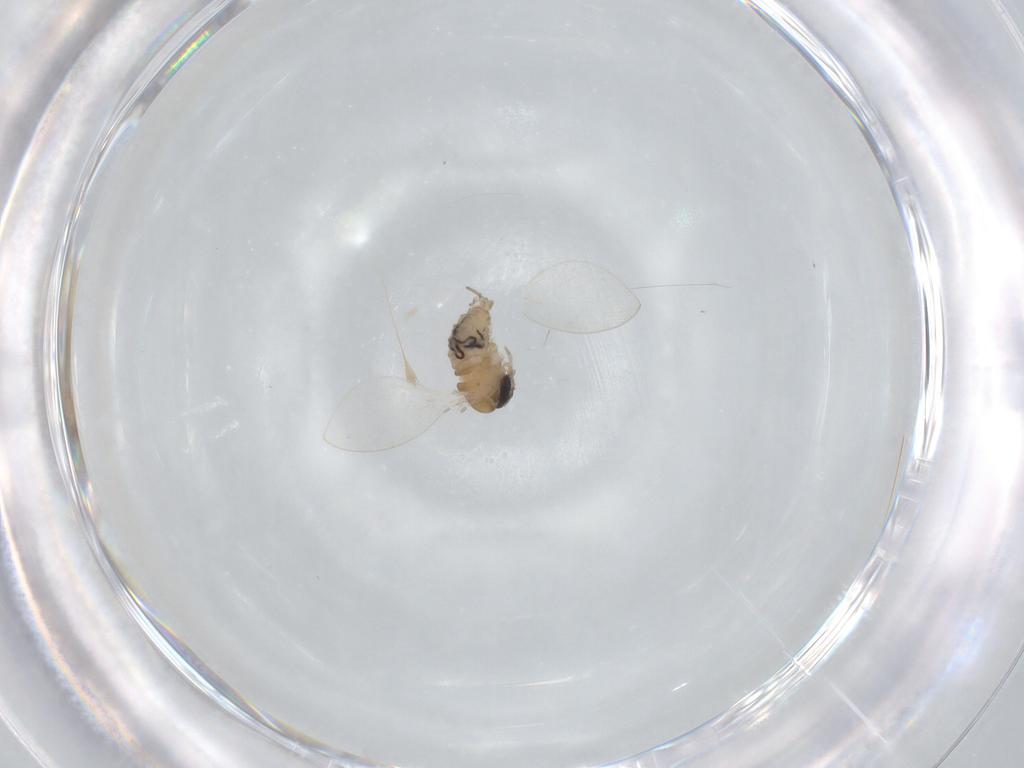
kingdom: Animalia
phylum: Arthropoda
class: Insecta
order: Diptera
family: Psychodidae
